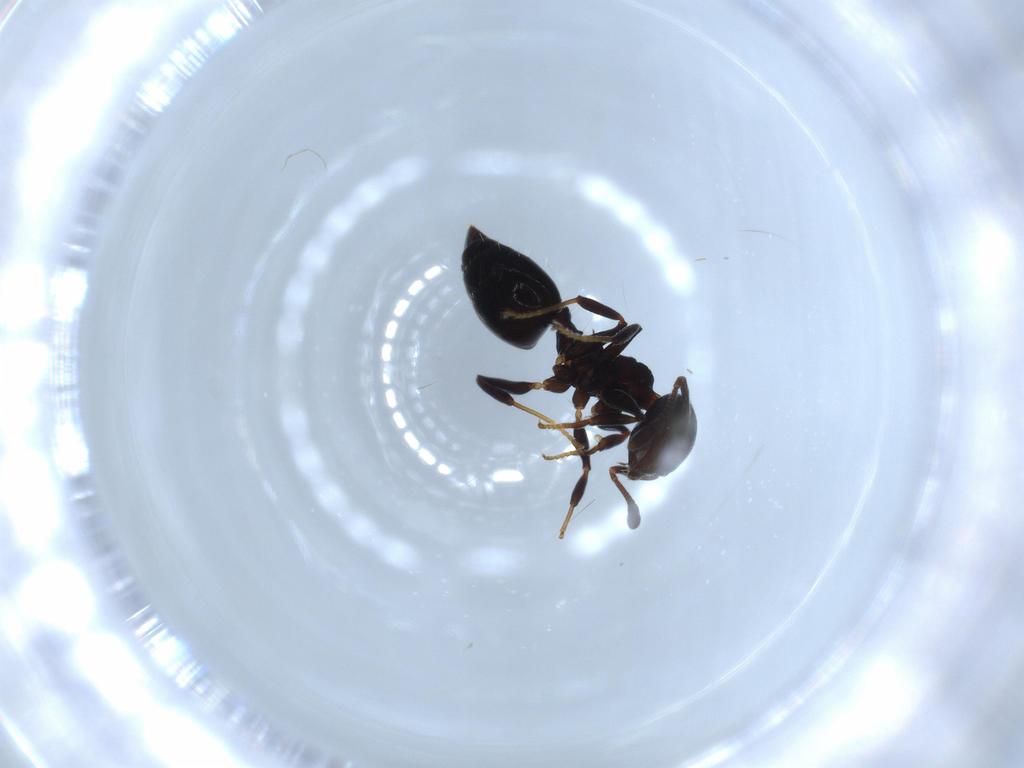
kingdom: Animalia
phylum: Arthropoda
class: Insecta
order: Hymenoptera
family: Formicidae
